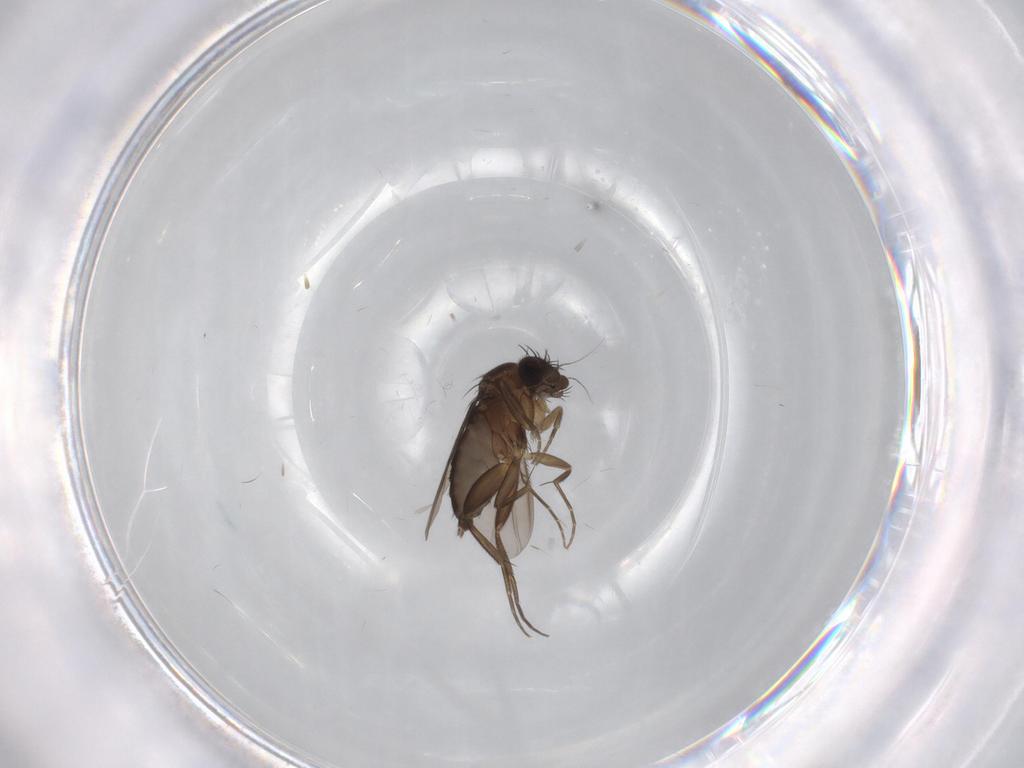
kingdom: Animalia
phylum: Arthropoda
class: Insecta
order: Diptera
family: Phoridae
